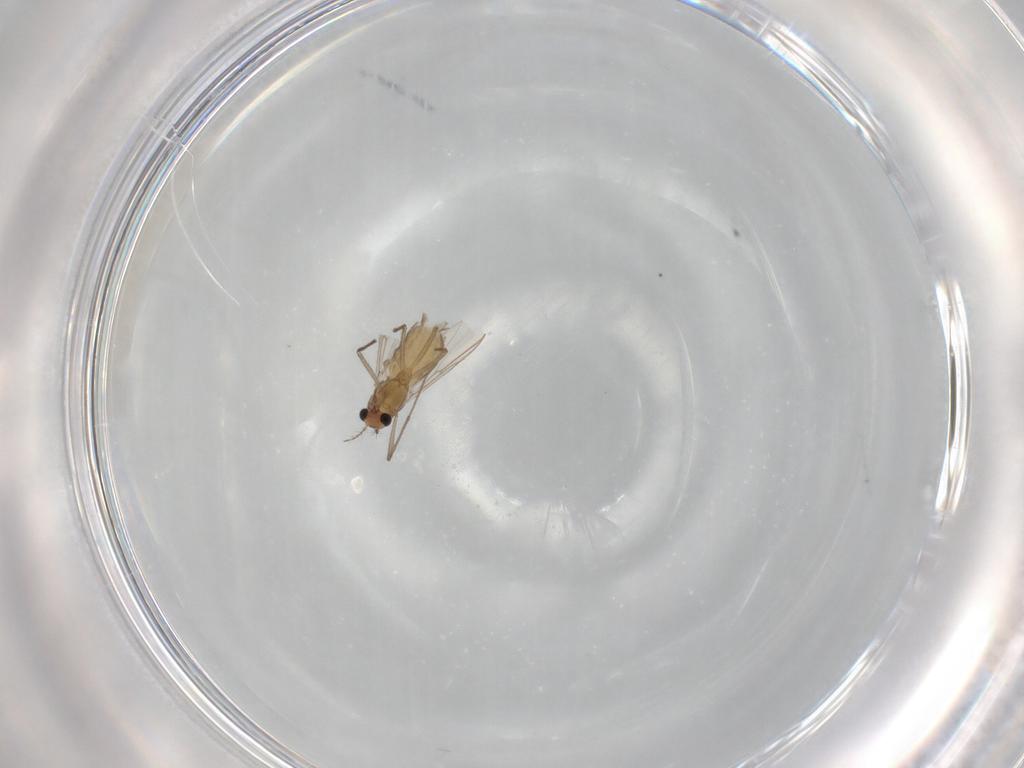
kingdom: Animalia
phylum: Arthropoda
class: Insecta
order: Diptera
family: Chironomidae
